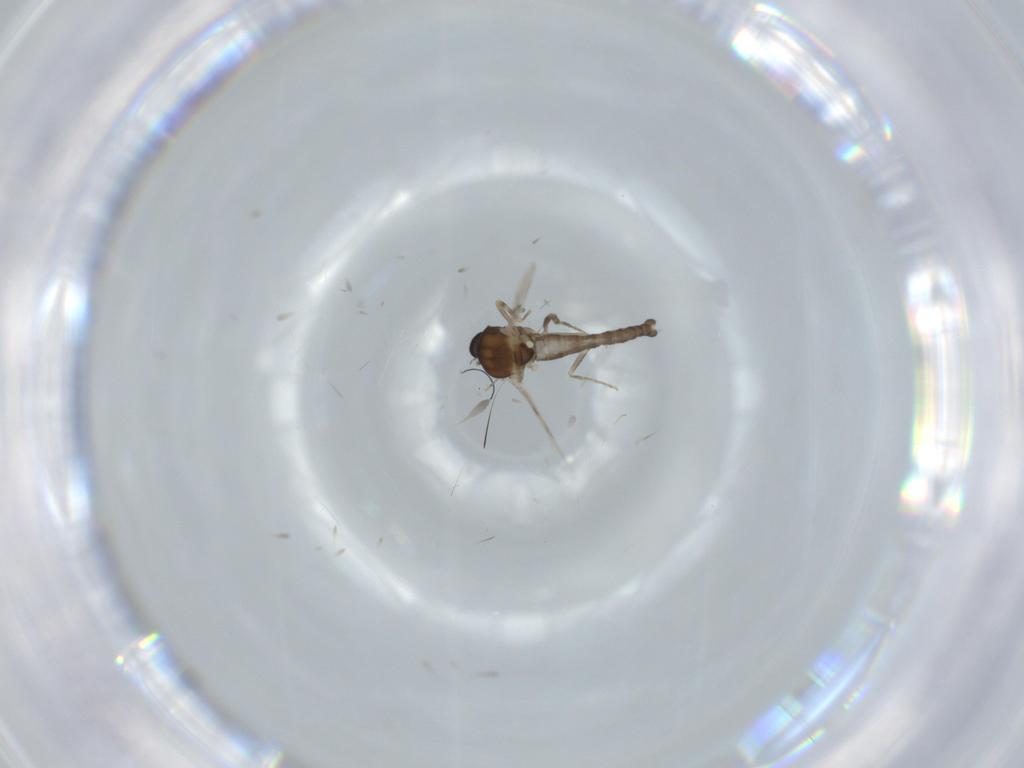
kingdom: Animalia
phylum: Arthropoda
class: Insecta
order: Diptera
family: Ceratopogonidae
